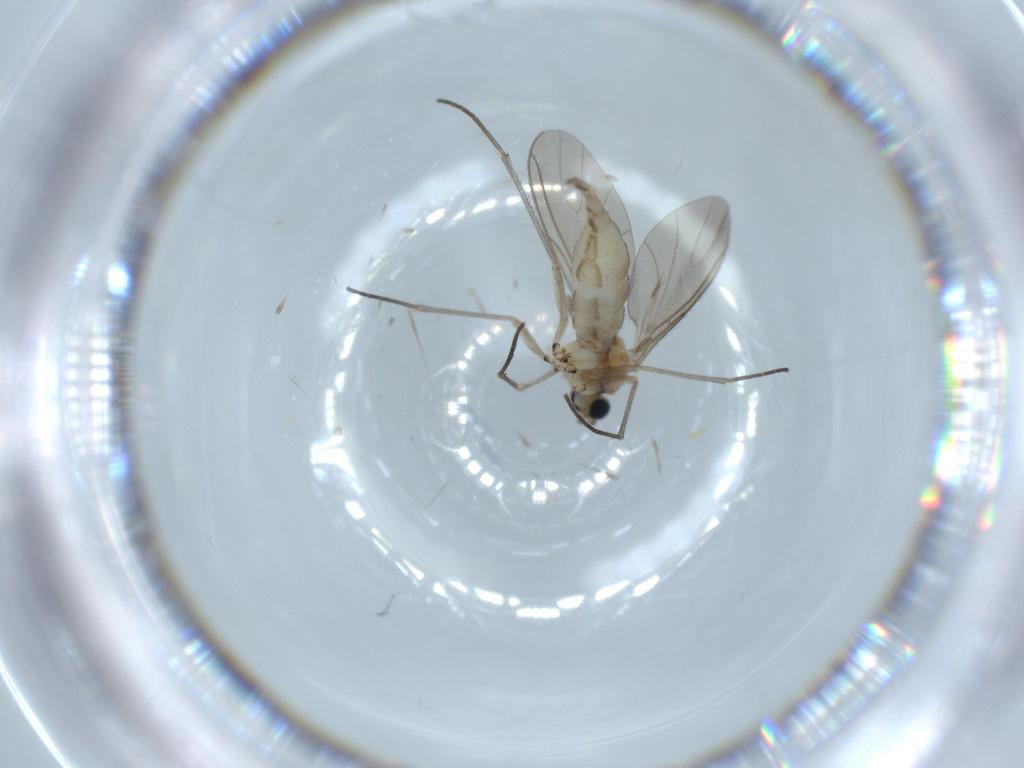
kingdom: Animalia
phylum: Arthropoda
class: Insecta
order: Diptera
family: Sciaridae
